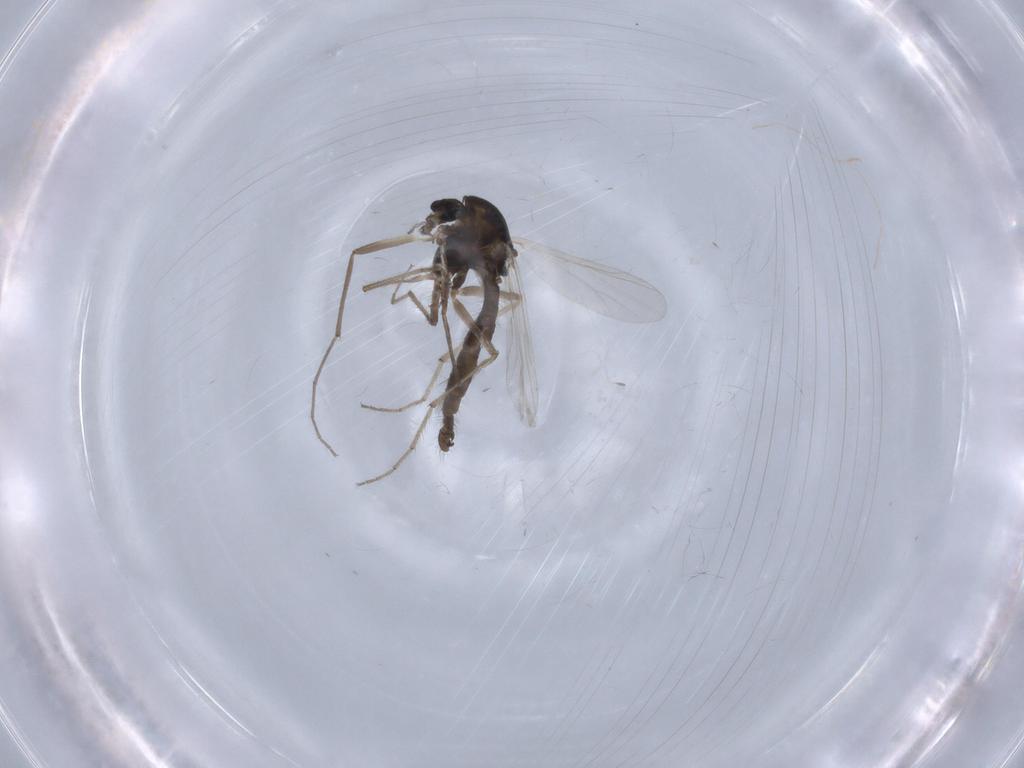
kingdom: Animalia
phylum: Arthropoda
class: Insecta
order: Diptera
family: Chironomidae
